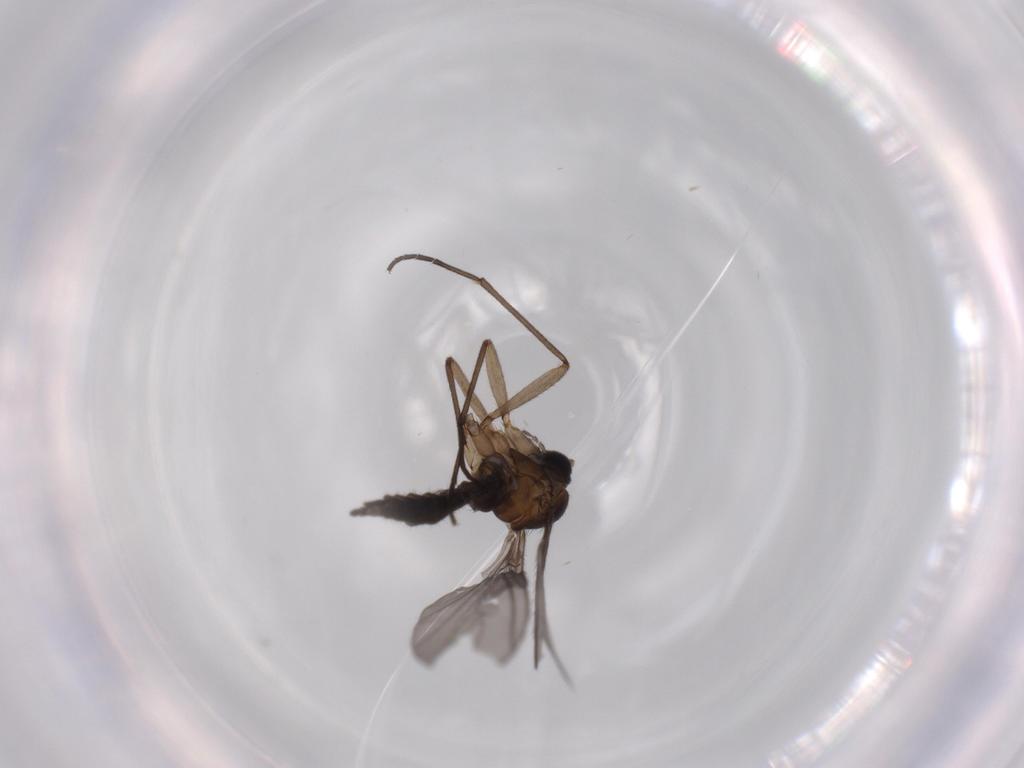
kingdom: Animalia
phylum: Arthropoda
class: Insecta
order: Diptera
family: Sciaridae
